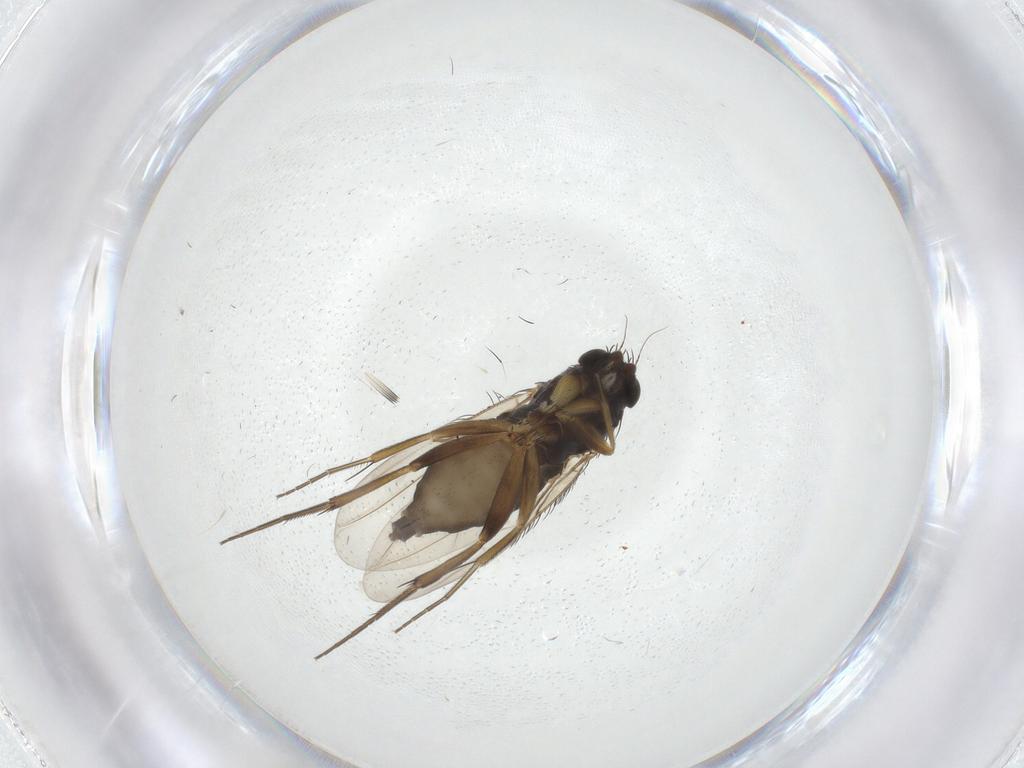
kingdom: Animalia
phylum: Arthropoda
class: Insecta
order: Diptera
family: Phoridae
